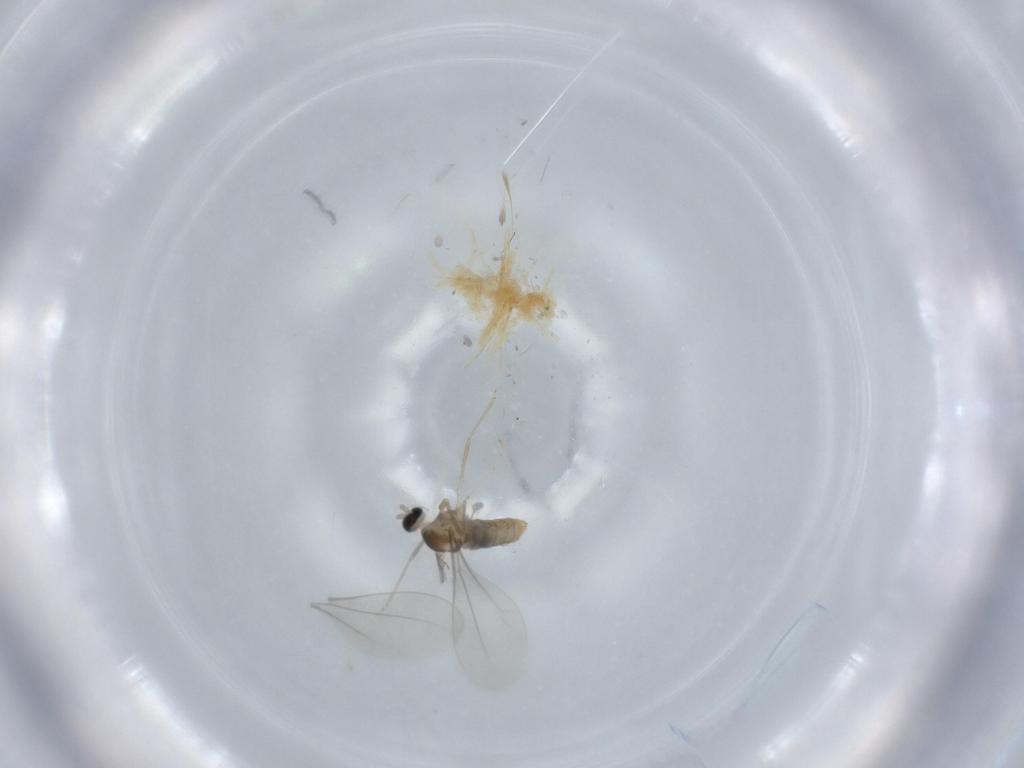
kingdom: Animalia
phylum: Arthropoda
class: Insecta
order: Diptera
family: Cecidomyiidae
